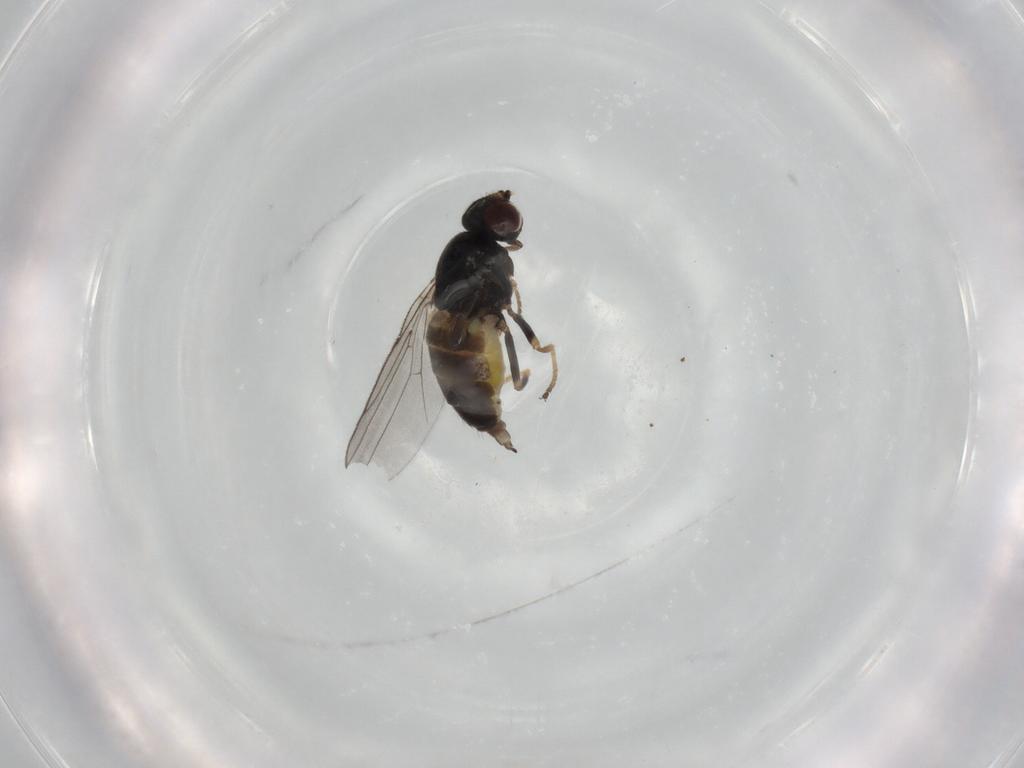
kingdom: Animalia
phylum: Arthropoda
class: Insecta
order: Diptera
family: Chloropidae
